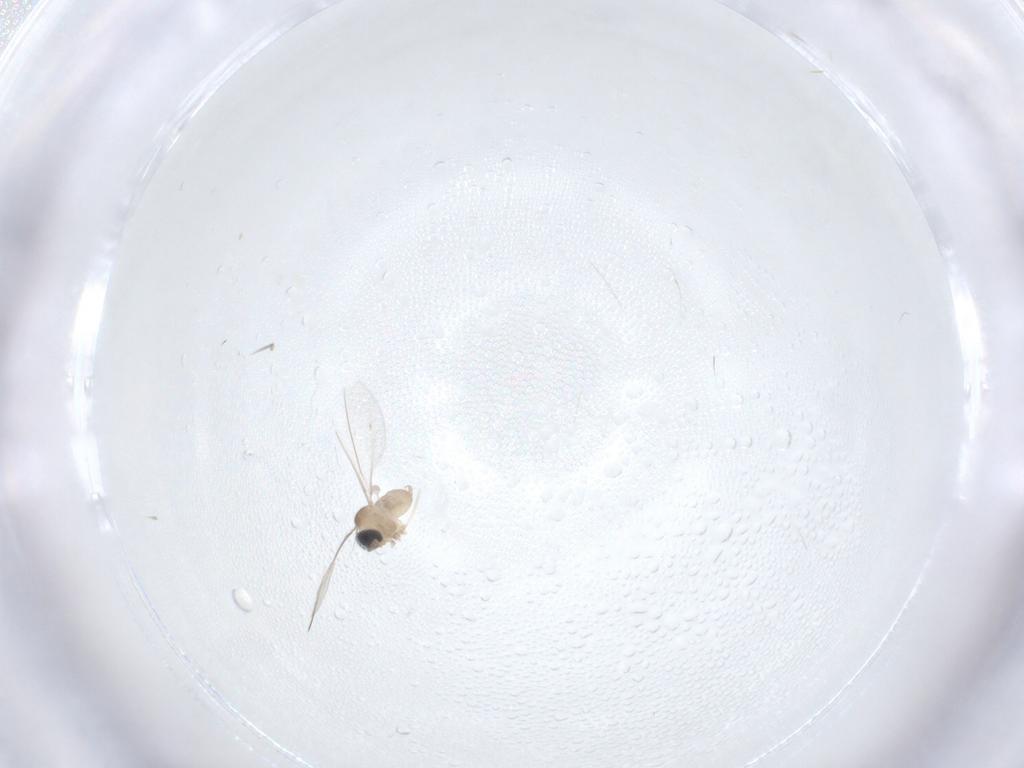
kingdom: Animalia
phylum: Arthropoda
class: Insecta
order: Diptera
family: Cecidomyiidae
